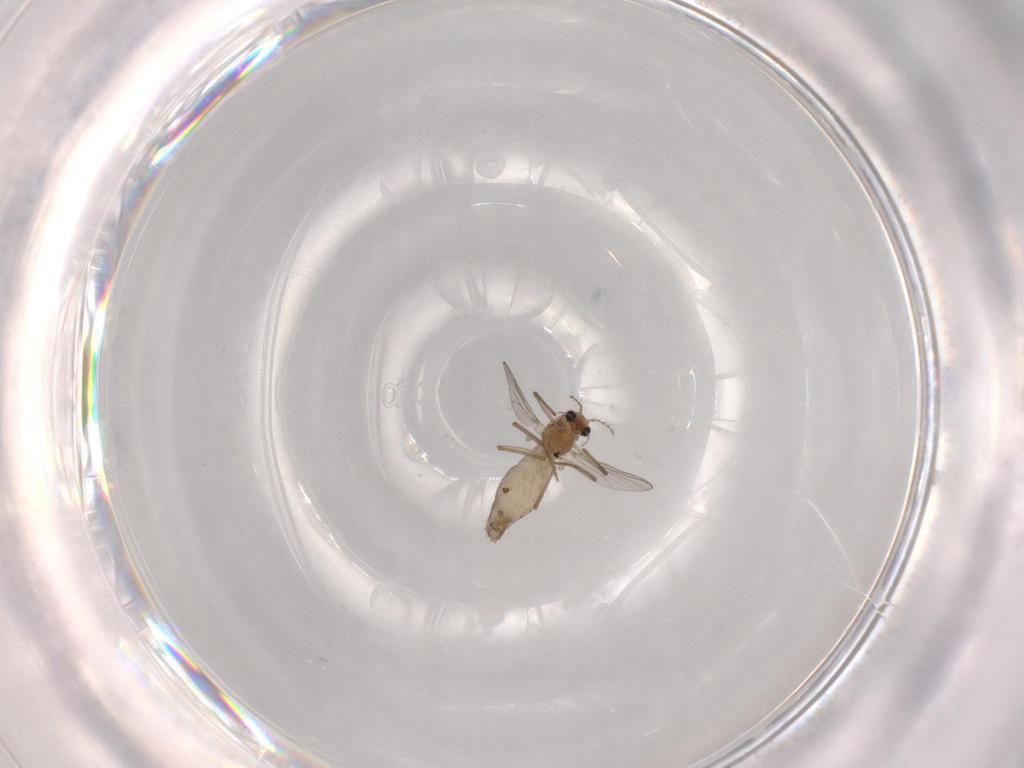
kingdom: Animalia
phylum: Arthropoda
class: Insecta
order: Diptera
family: Chironomidae
